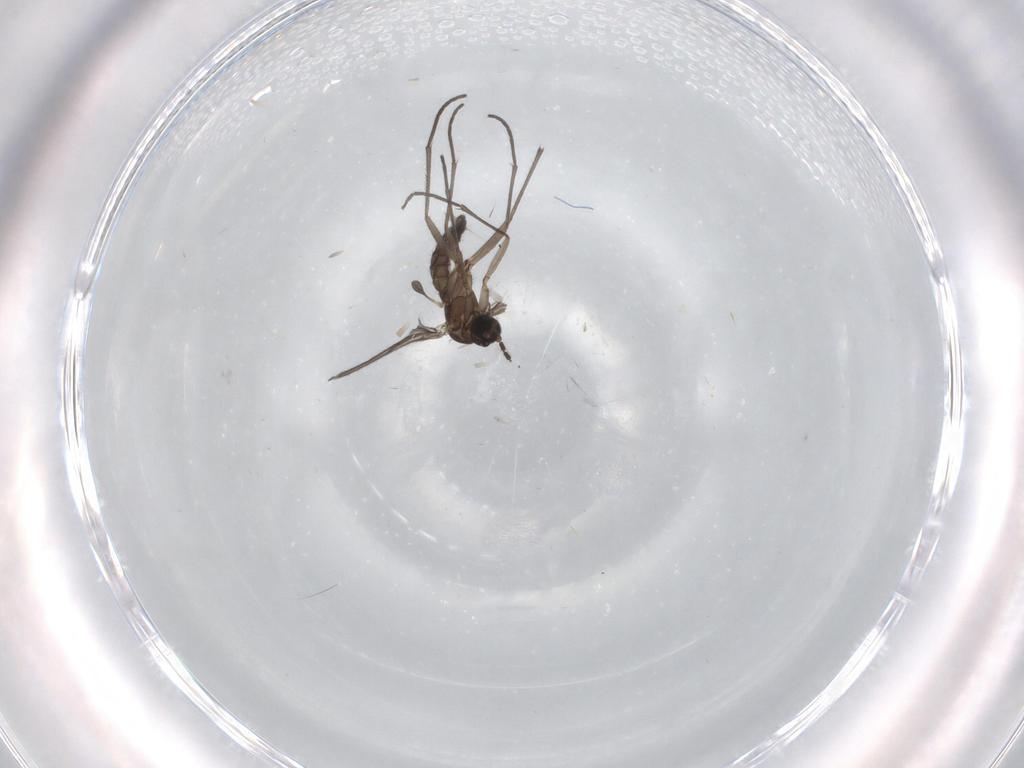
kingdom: Animalia
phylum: Arthropoda
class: Insecta
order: Diptera
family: Sciaridae
